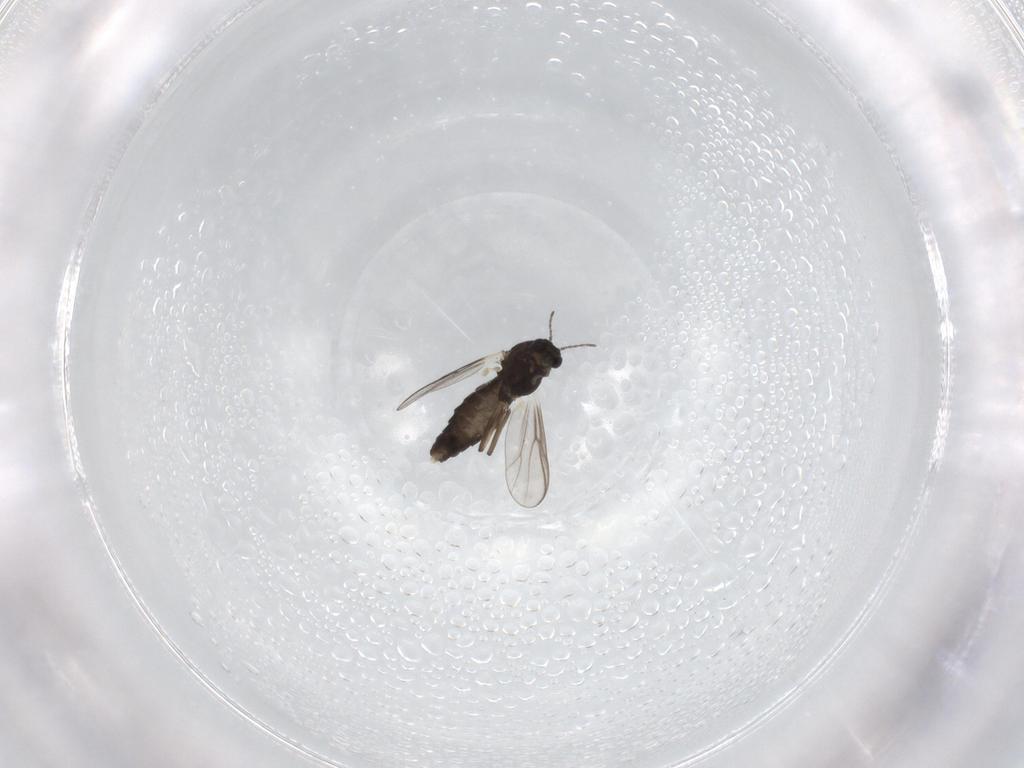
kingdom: Animalia
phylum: Arthropoda
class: Insecta
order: Diptera
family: Chironomidae
